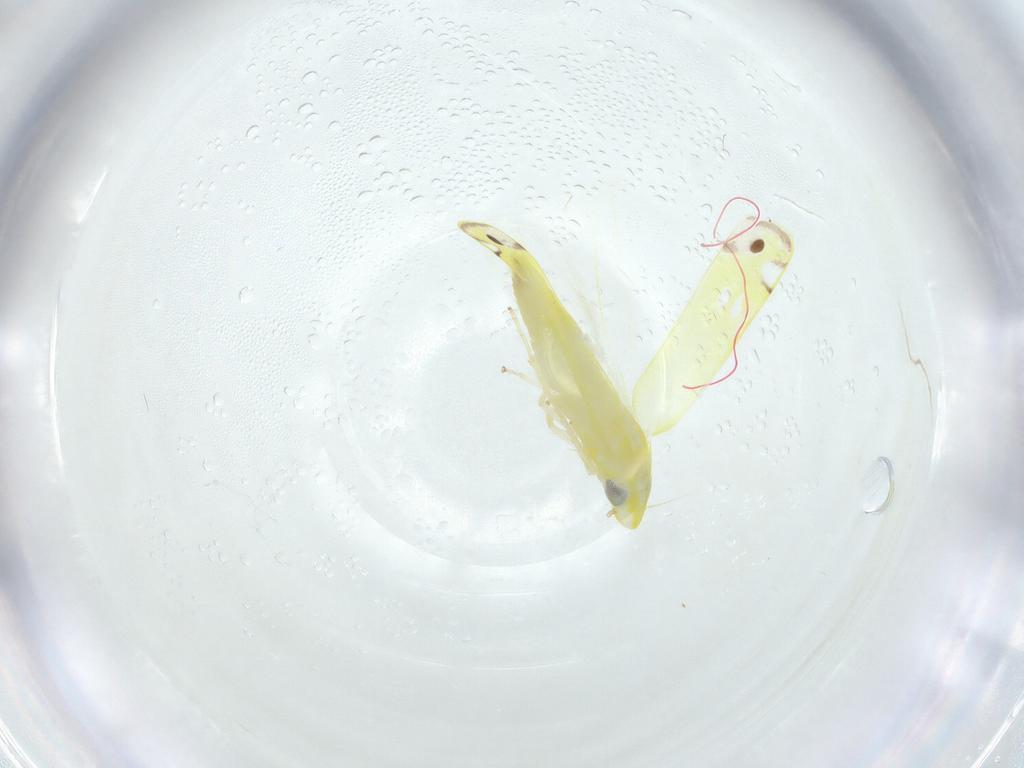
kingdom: Animalia
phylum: Arthropoda
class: Insecta
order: Hemiptera
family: Cicadellidae
